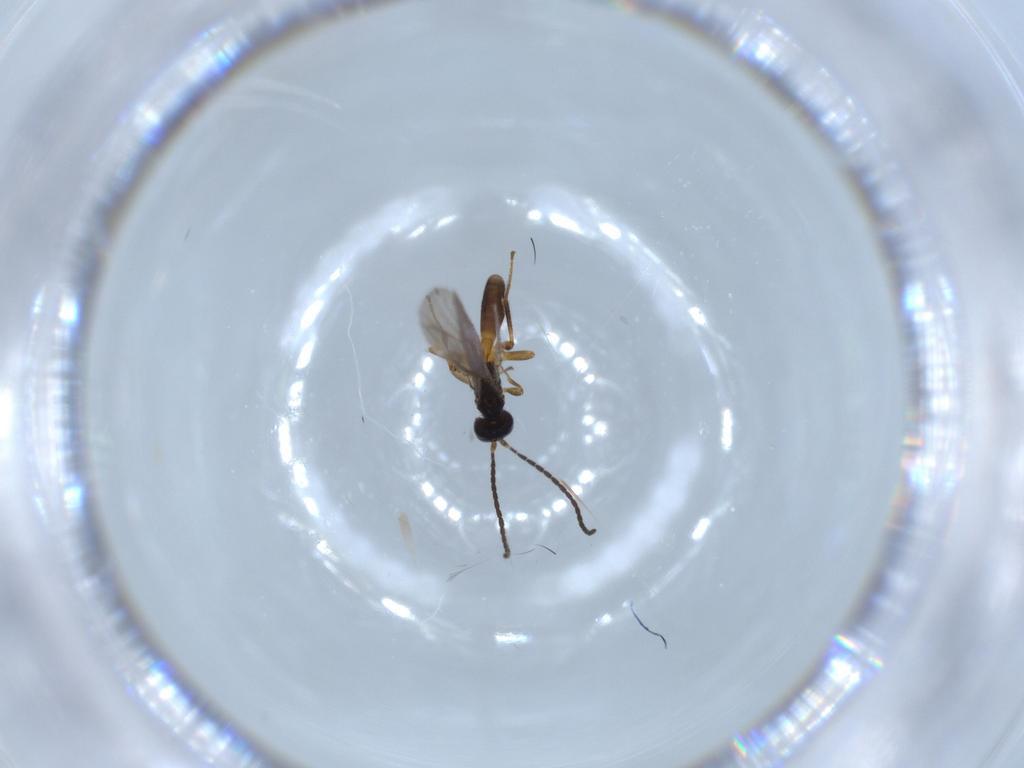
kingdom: Animalia
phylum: Arthropoda
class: Insecta
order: Hymenoptera
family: Braconidae
